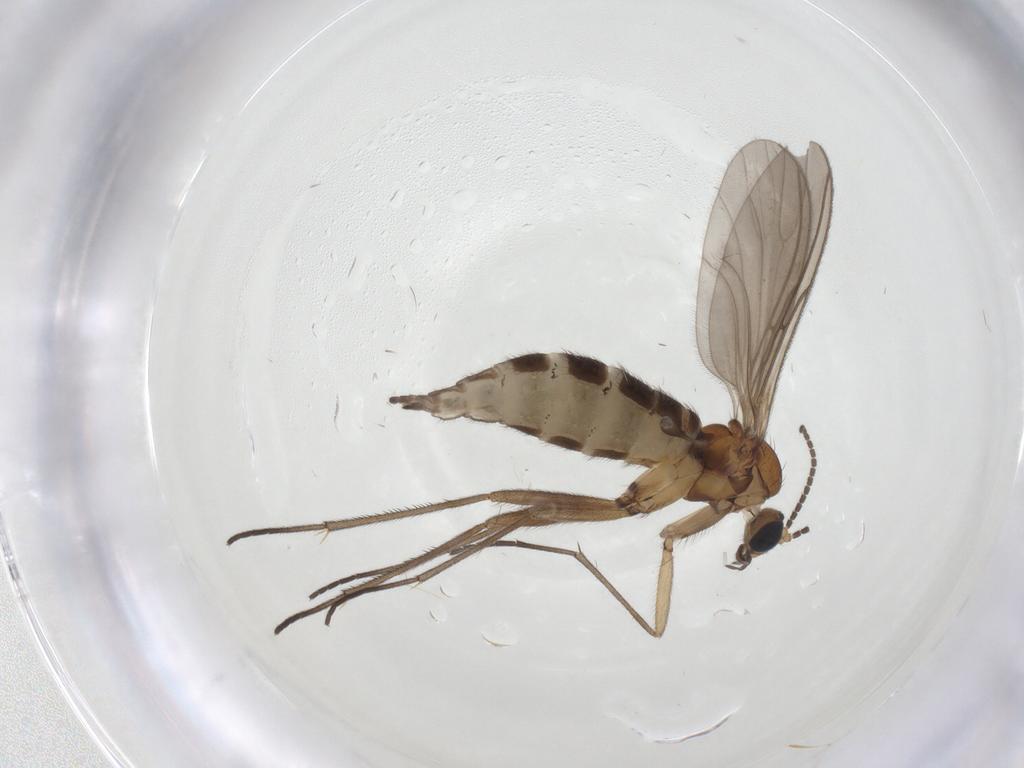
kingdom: Animalia
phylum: Arthropoda
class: Insecta
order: Diptera
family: Sciaridae
